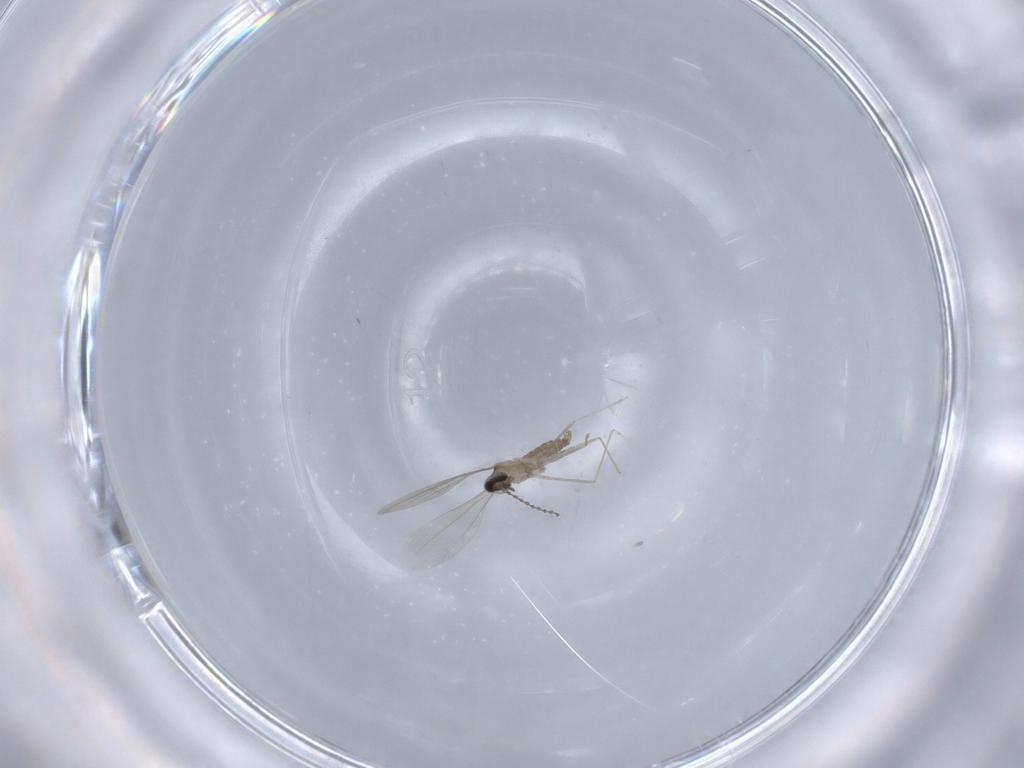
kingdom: Animalia
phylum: Arthropoda
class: Insecta
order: Diptera
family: Cecidomyiidae
